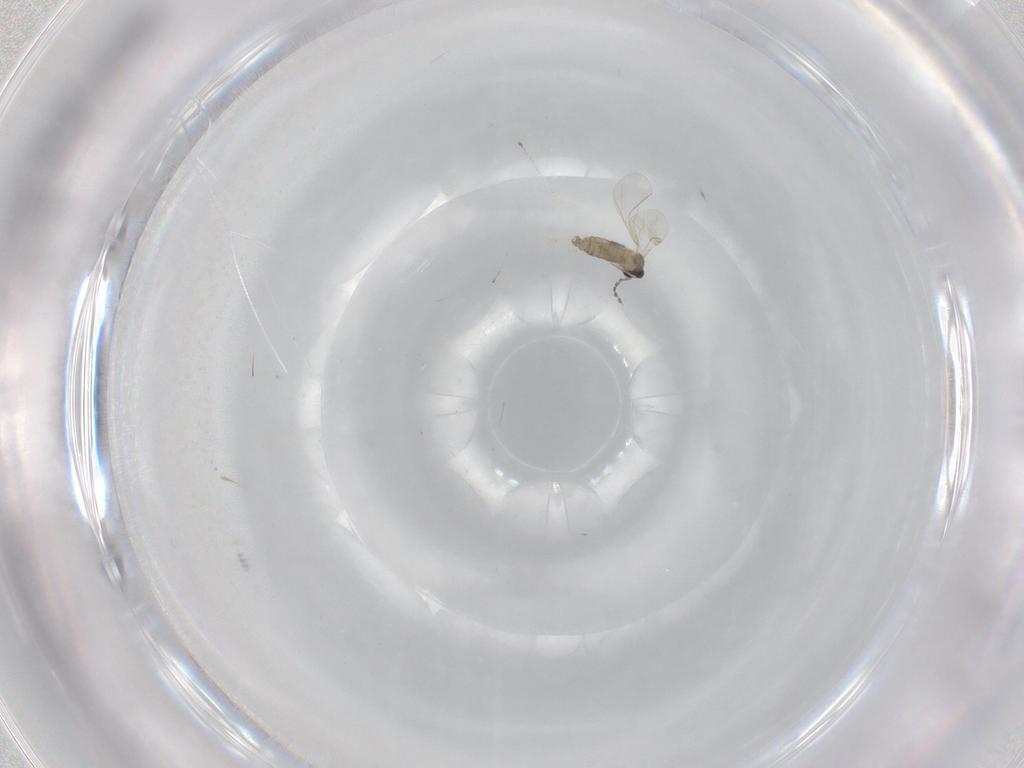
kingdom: Animalia
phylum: Arthropoda
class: Insecta
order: Diptera
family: Cecidomyiidae
